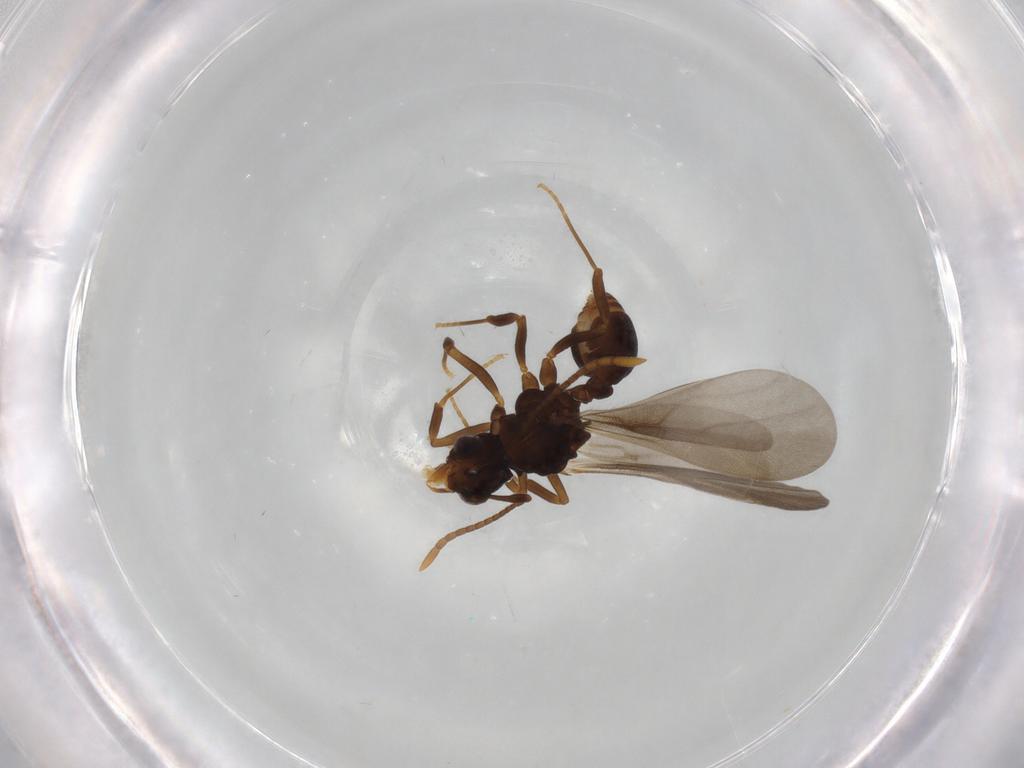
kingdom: Animalia
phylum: Arthropoda
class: Insecta
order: Hymenoptera
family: Formicidae
